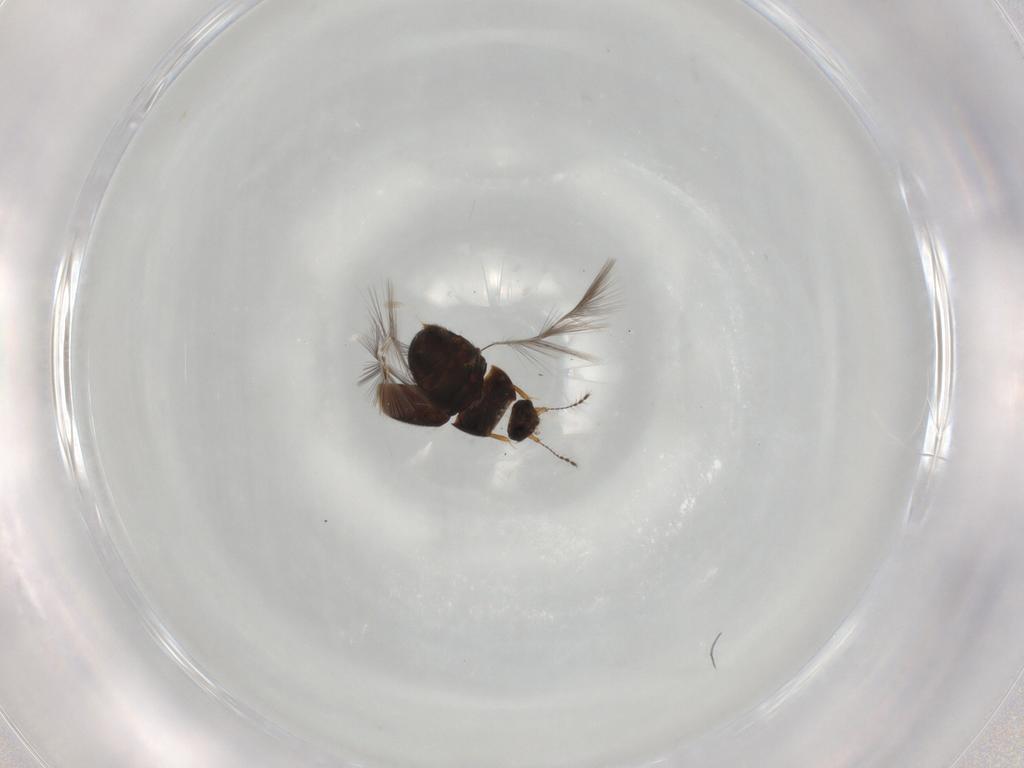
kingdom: Animalia
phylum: Arthropoda
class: Insecta
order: Coleoptera
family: Ptiliidae
